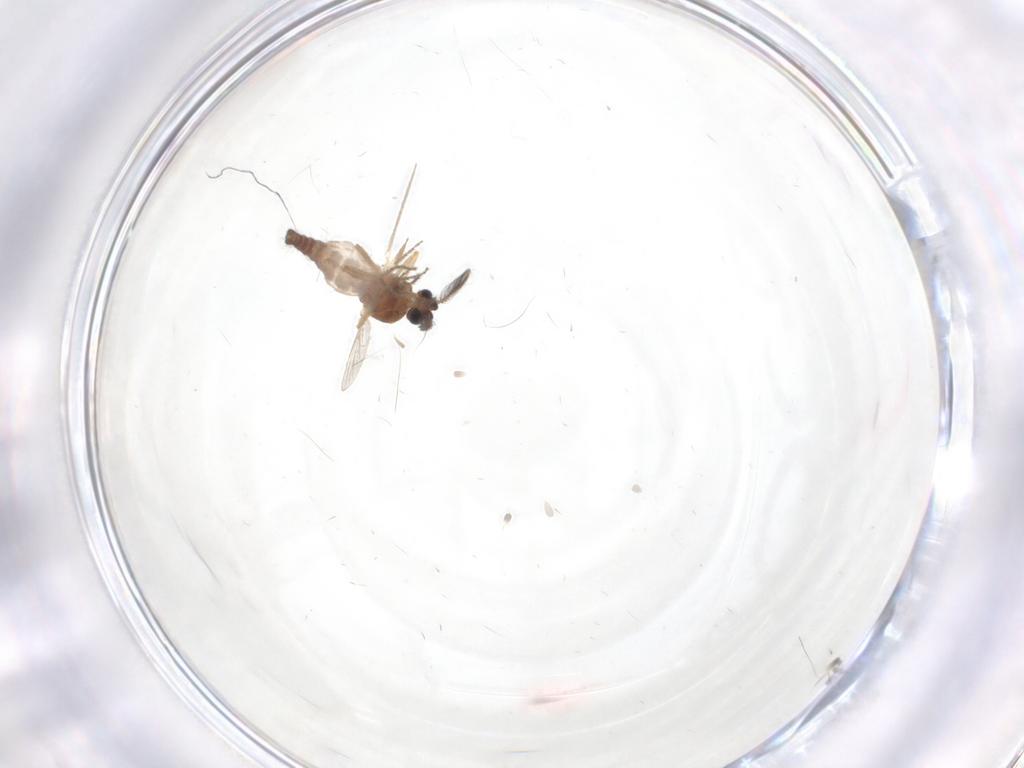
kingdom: Animalia
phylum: Arthropoda
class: Insecta
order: Diptera
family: Ceratopogonidae
